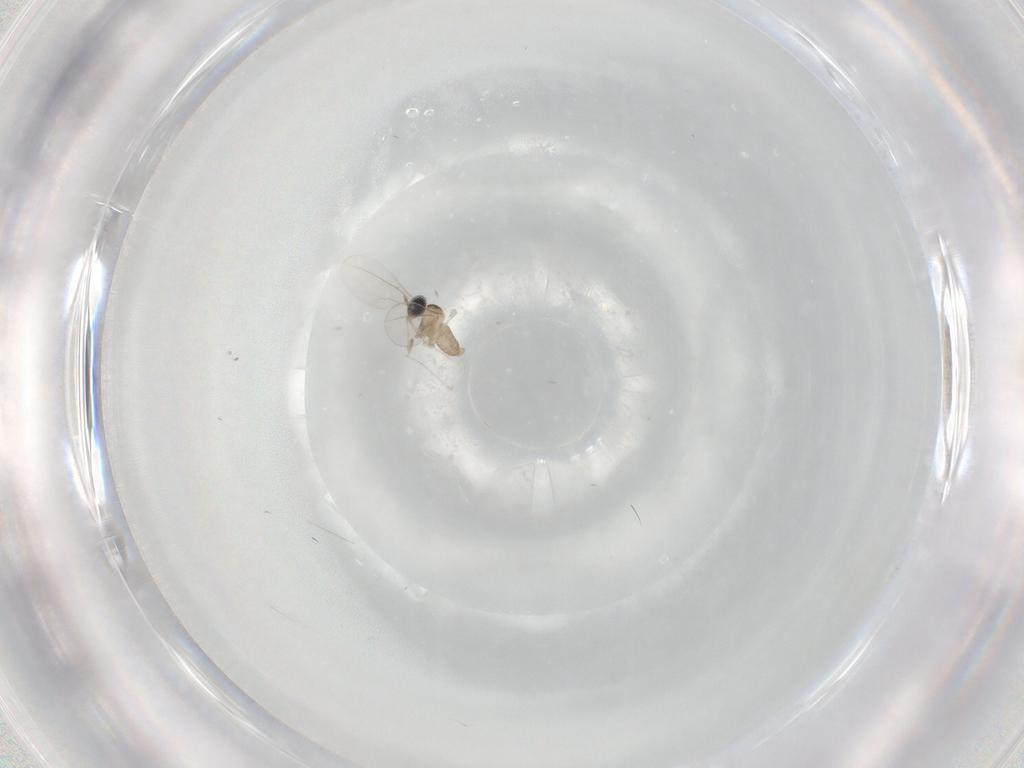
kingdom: Animalia
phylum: Arthropoda
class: Insecta
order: Diptera
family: Cecidomyiidae
